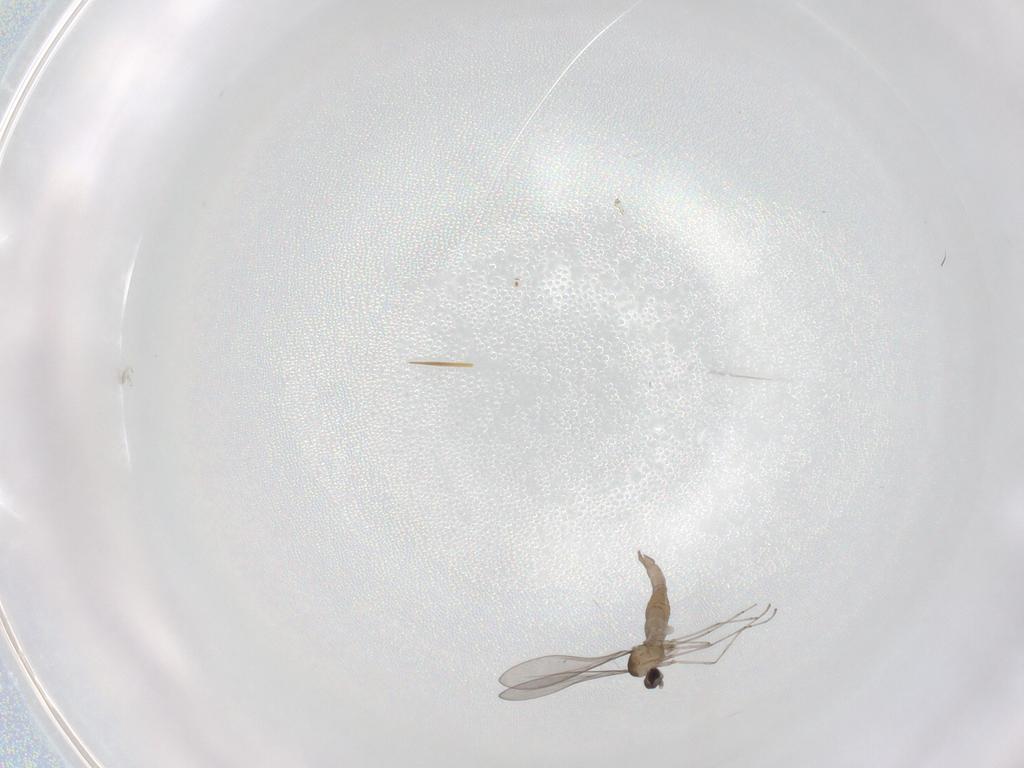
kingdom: Animalia
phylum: Arthropoda
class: Insecta
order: Diptera
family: Cecidomyiidae
